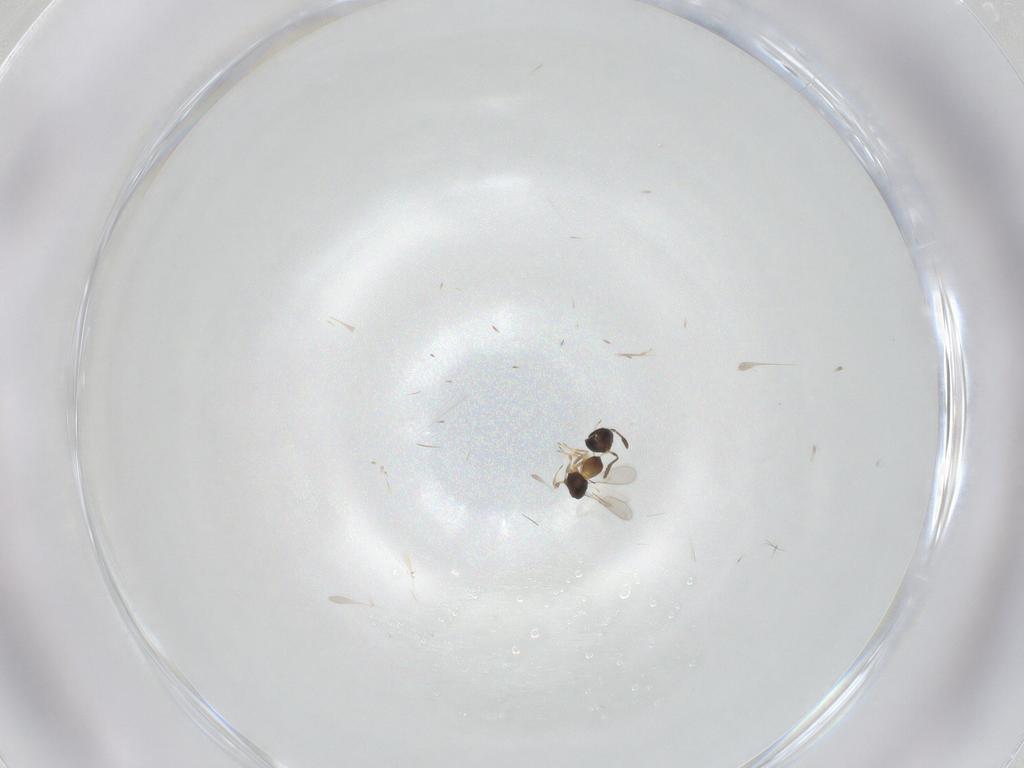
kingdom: Animalia
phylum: Arthropoda
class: Insecta
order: Hymenoptera
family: Scelionidae
